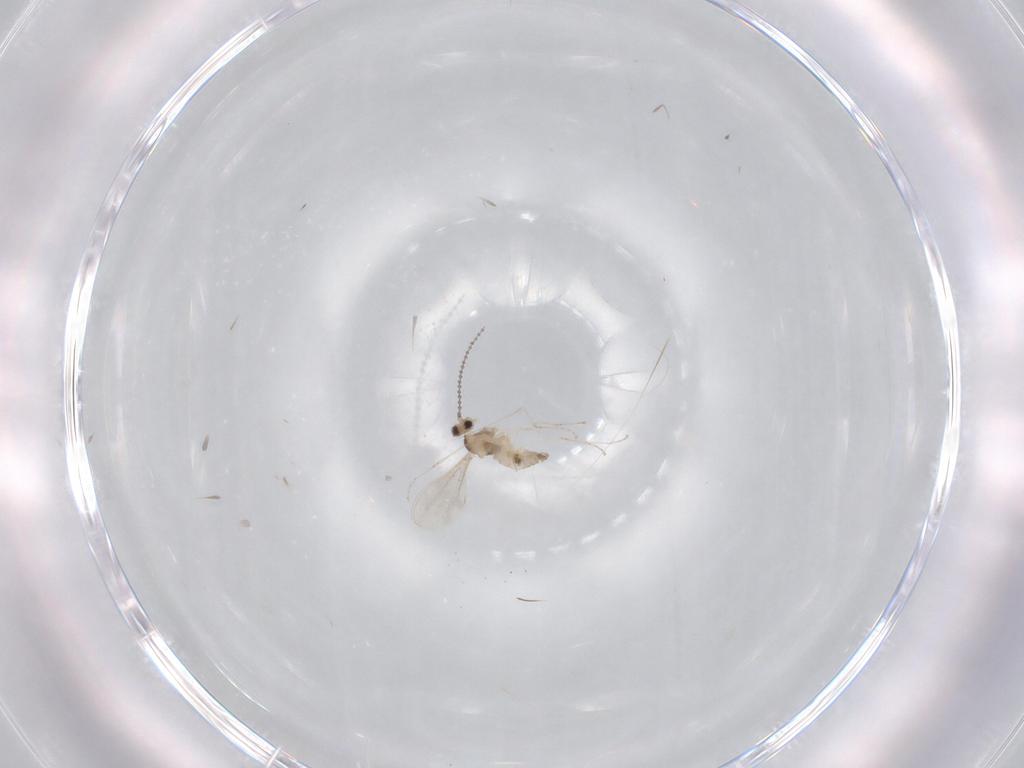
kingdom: Animalia
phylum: Arthropoda
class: Insecta
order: Diptera
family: Cecidomyiidae
